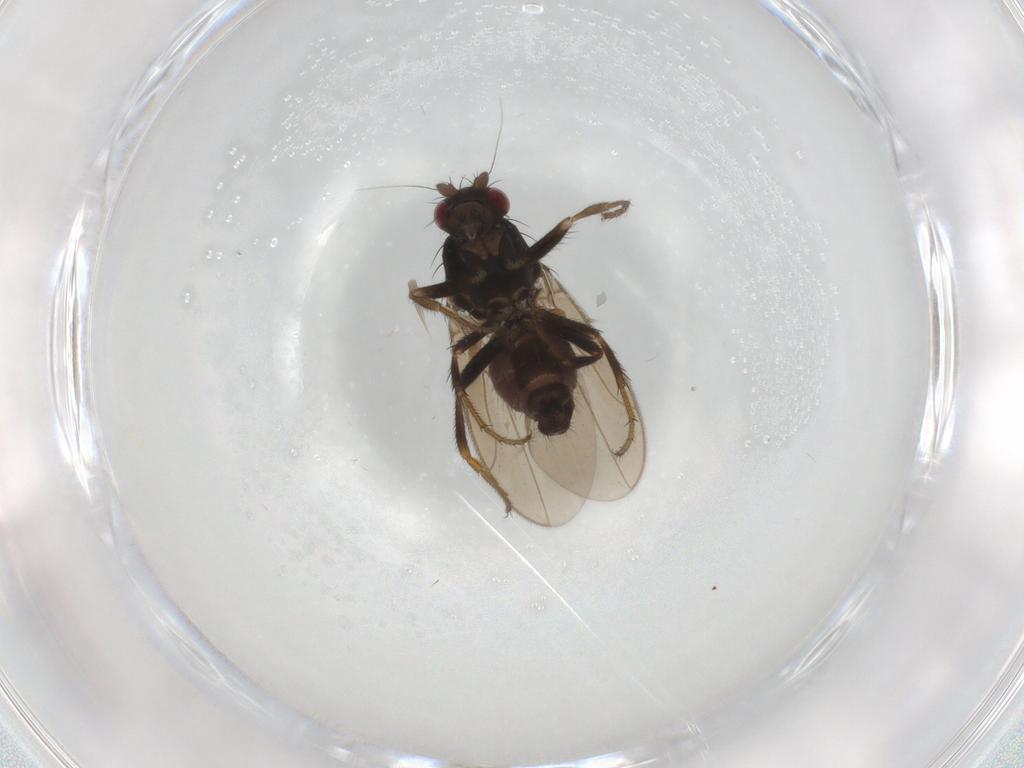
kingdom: Animalia
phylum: Arthropoda
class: Insecta
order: Diptera
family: Sphaeroceridae
